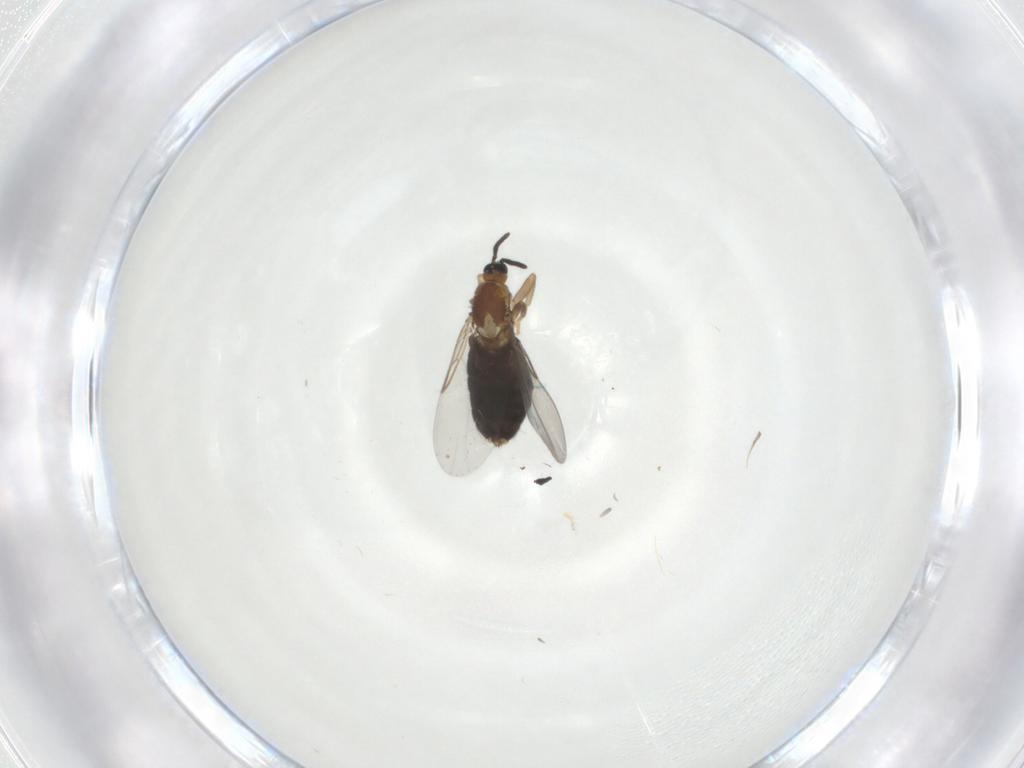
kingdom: Animalia
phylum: Arthropoda
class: Insecta
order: Diptera
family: Scatopsidae
